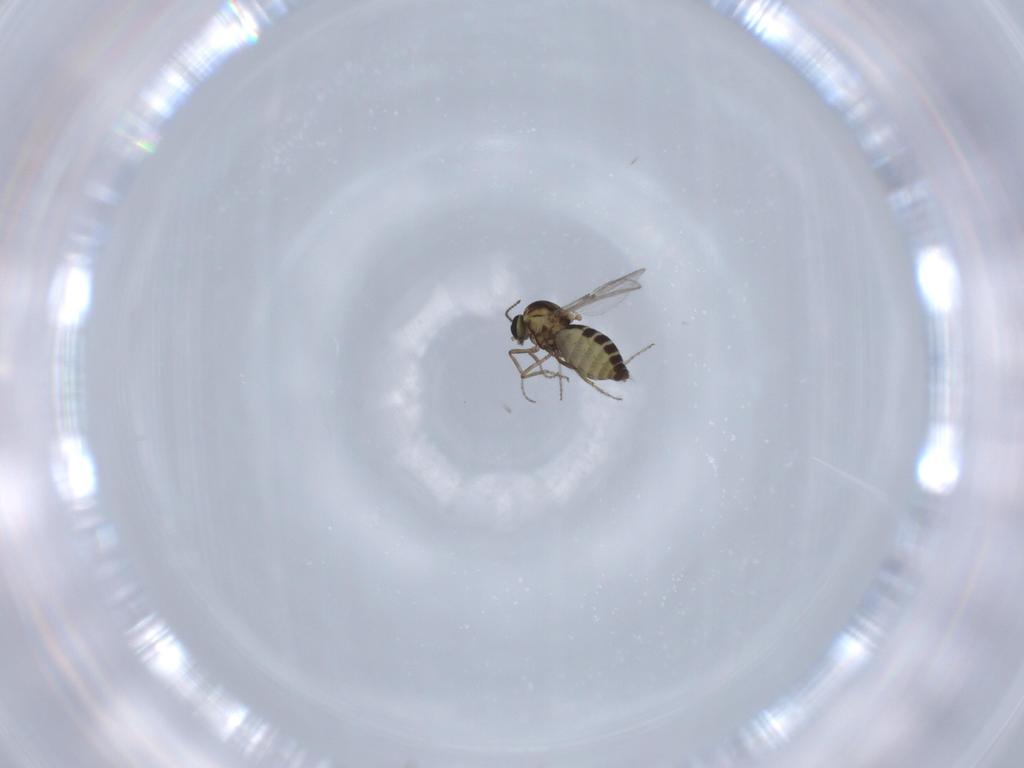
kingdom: Animalia
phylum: Arthropoda
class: Insecta
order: Diptera
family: Ceratopogonidae
